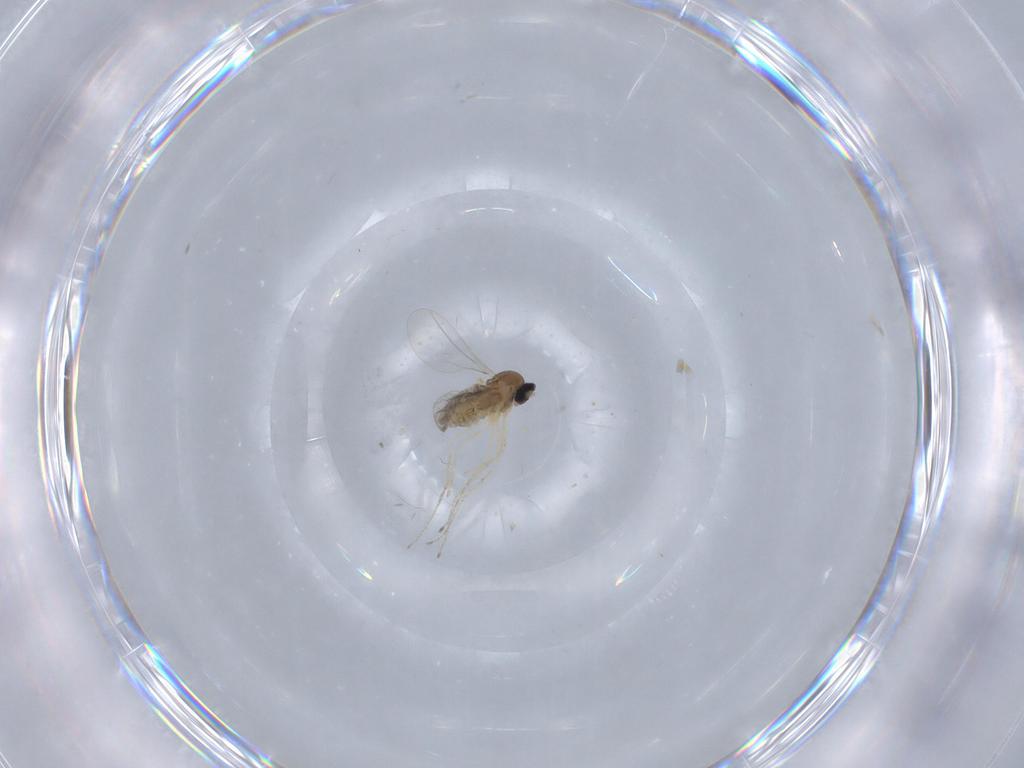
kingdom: Animalia
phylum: Arthropoda
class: Insecta
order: Diptera
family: Cecidomyiidae
